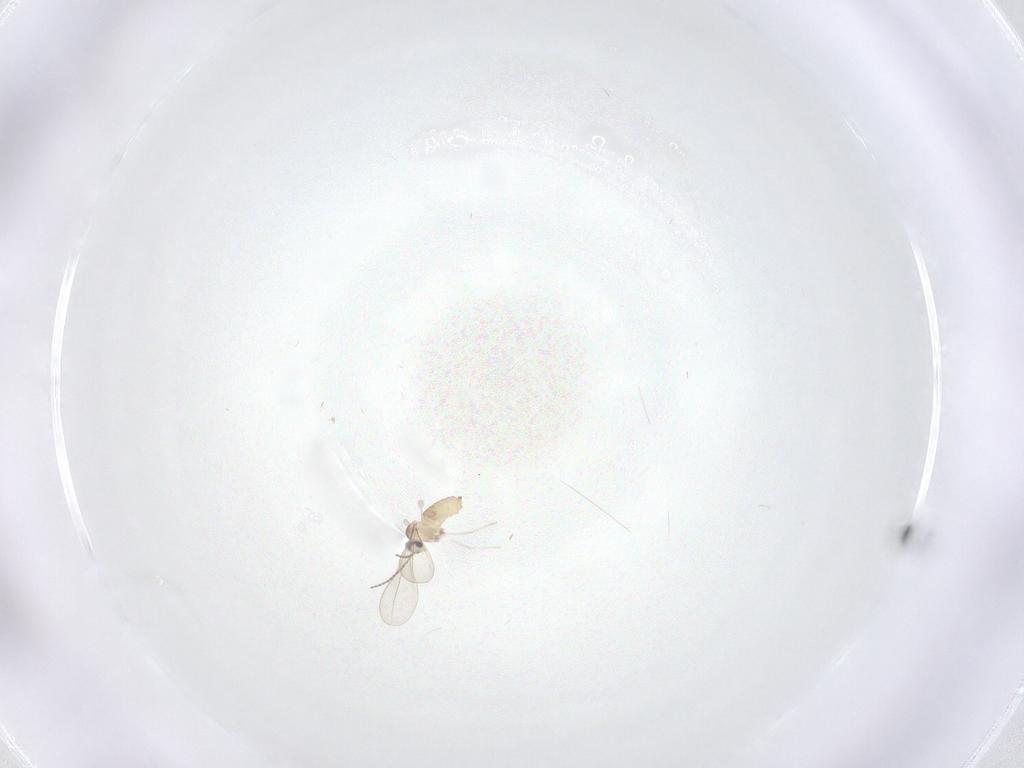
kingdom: Animalia
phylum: Arthropoda
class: Insecta
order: Diptera
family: Cecidomyiidae
